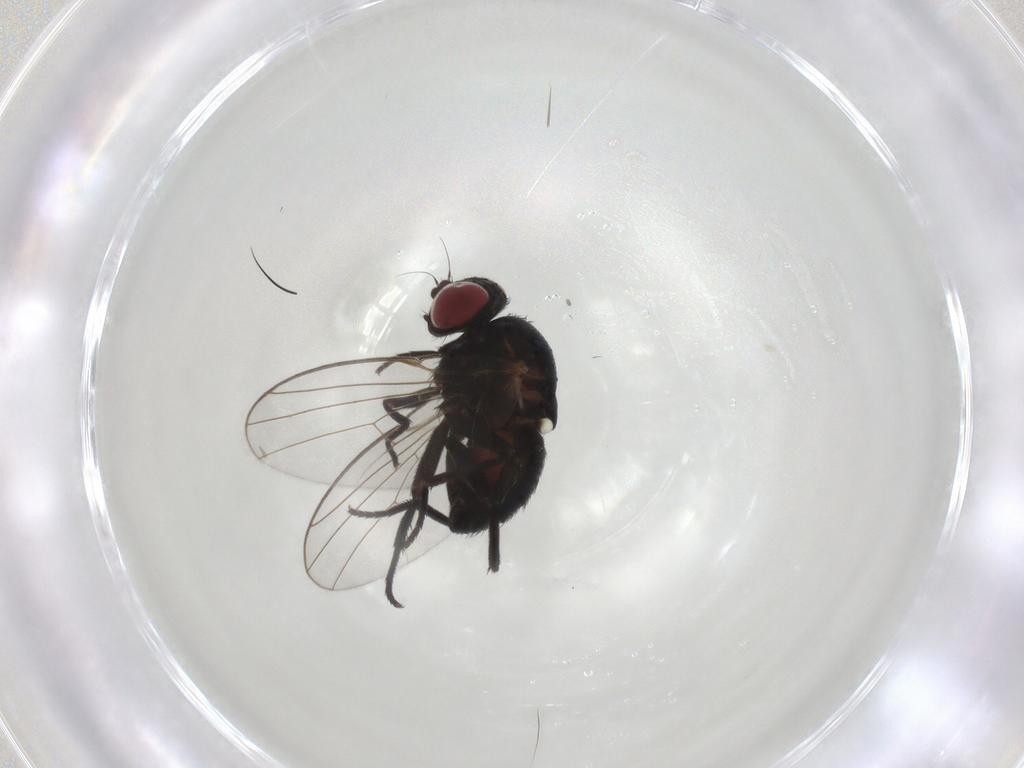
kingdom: Animalia
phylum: Arthropoda
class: Insecta
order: Diptera
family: Agromyzidae
